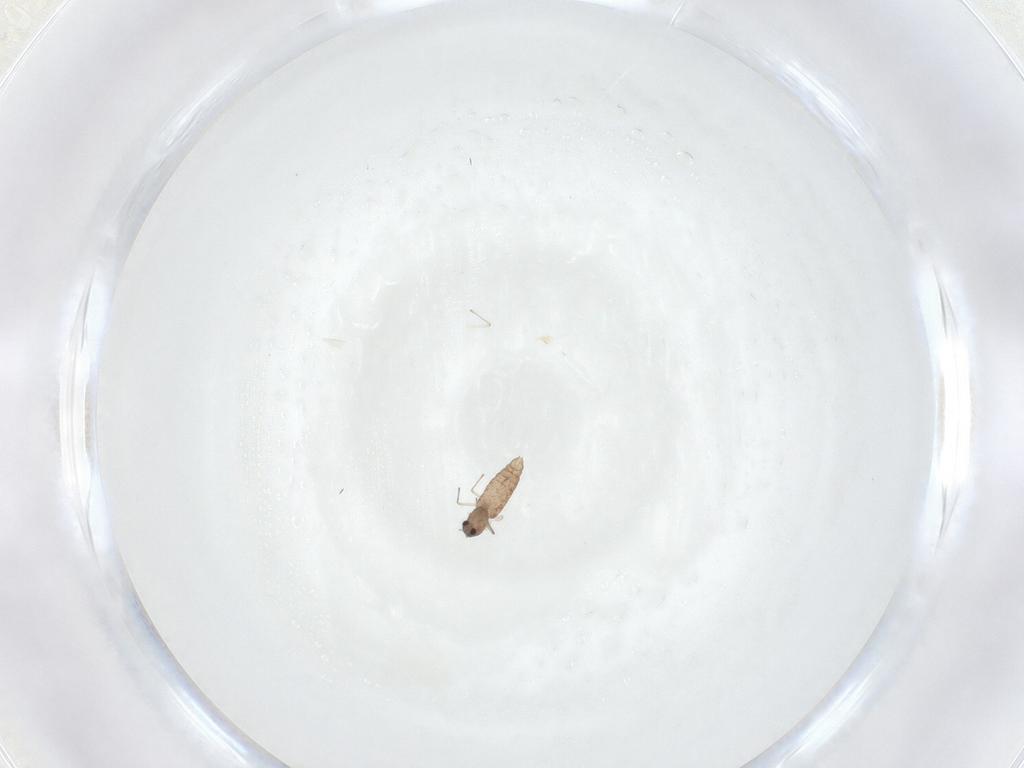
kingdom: Animalia
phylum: Arthropoda
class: Insecta
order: Diptera
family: Chironomidae
